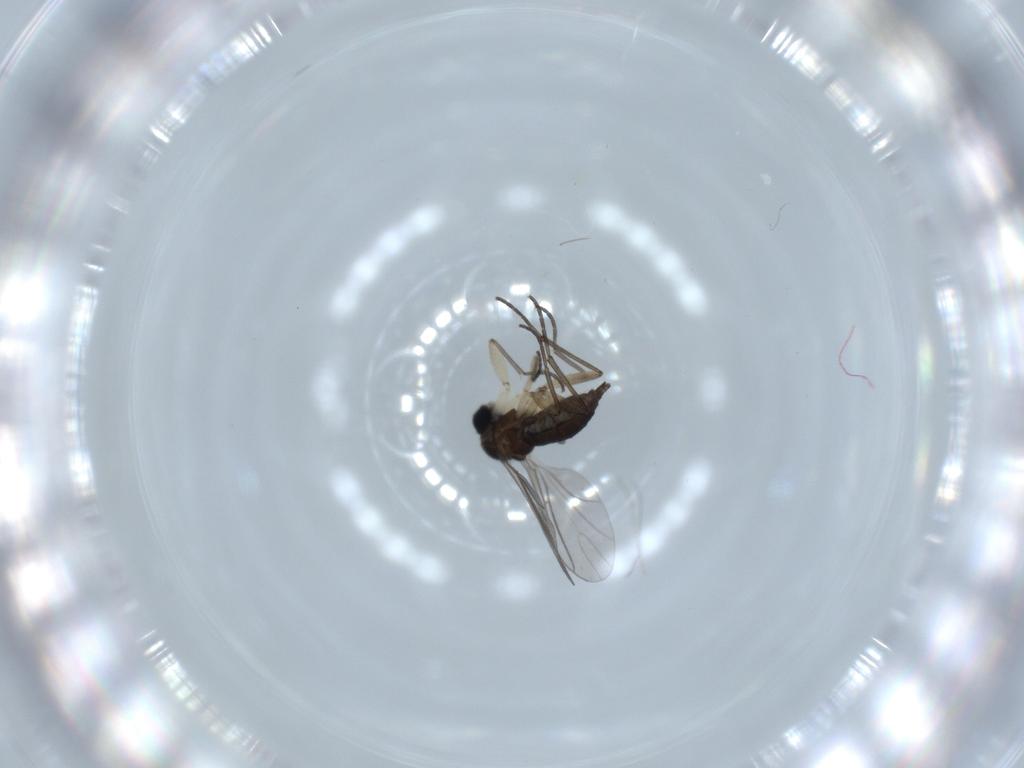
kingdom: Animalia
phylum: Arthropoda
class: Insecta
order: Diptera
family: Sciaridae
